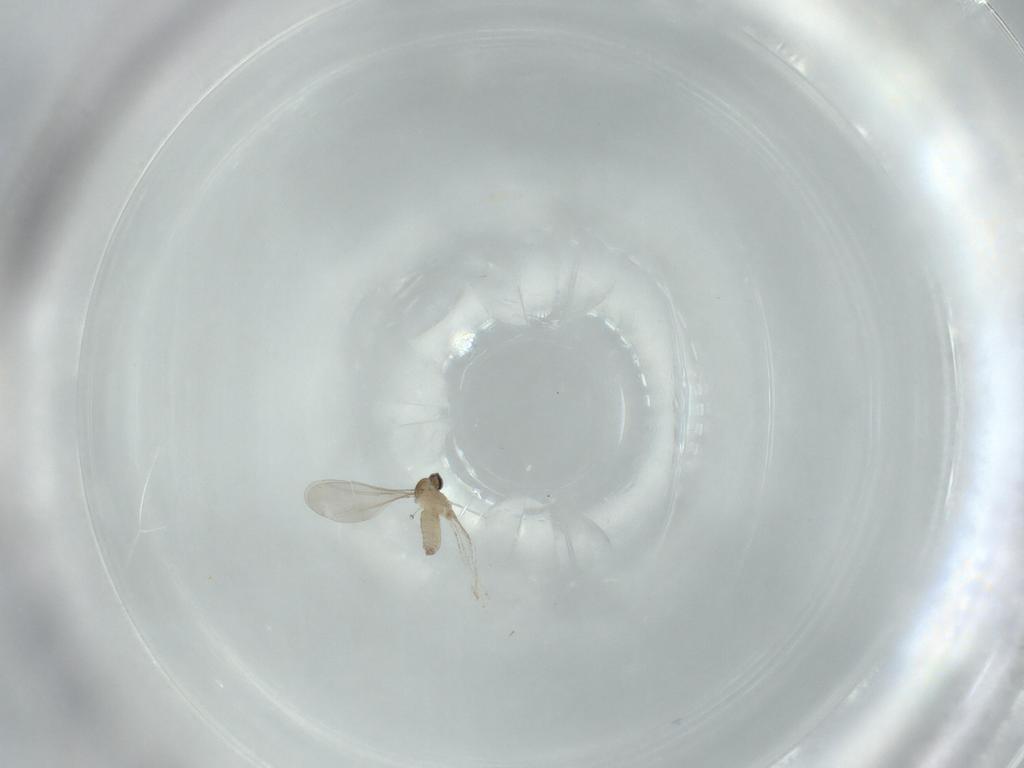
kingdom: Animalia
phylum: Arthropoda
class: Insecta
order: Diptera
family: Cecidomyiidae
